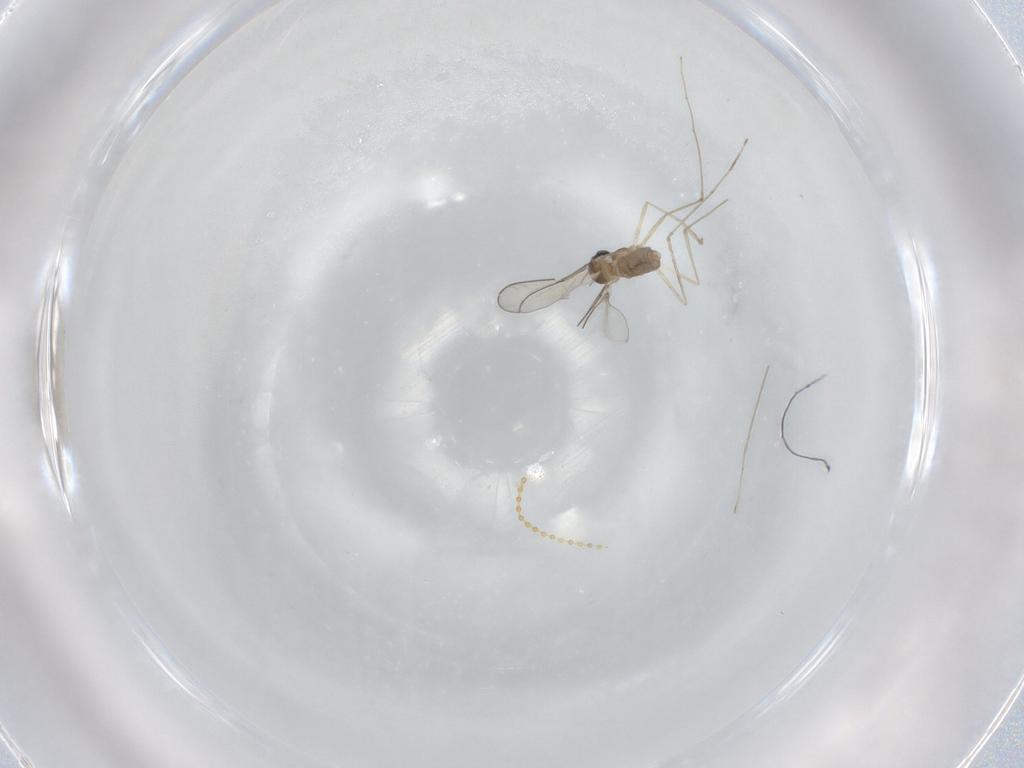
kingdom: Animalia
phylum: Arthropoda
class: Insecta
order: Diptera
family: Cecidomyiidae
